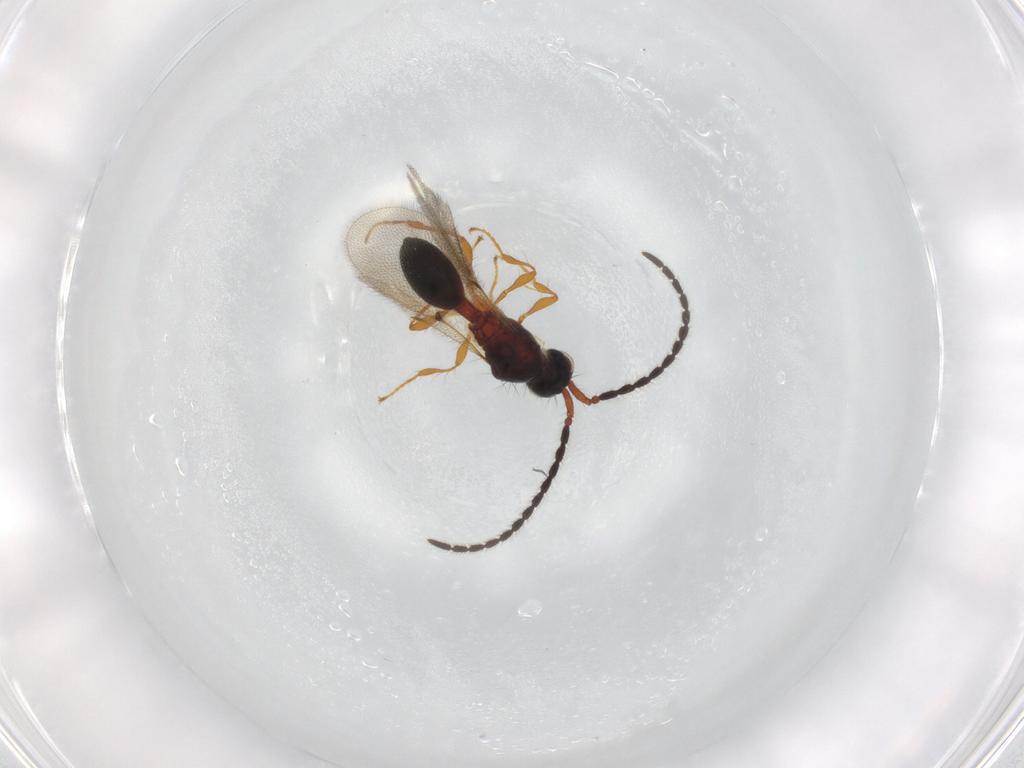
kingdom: Animalia
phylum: Arthropoda
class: Insecta
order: Hymenoptera
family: Diapriidae
